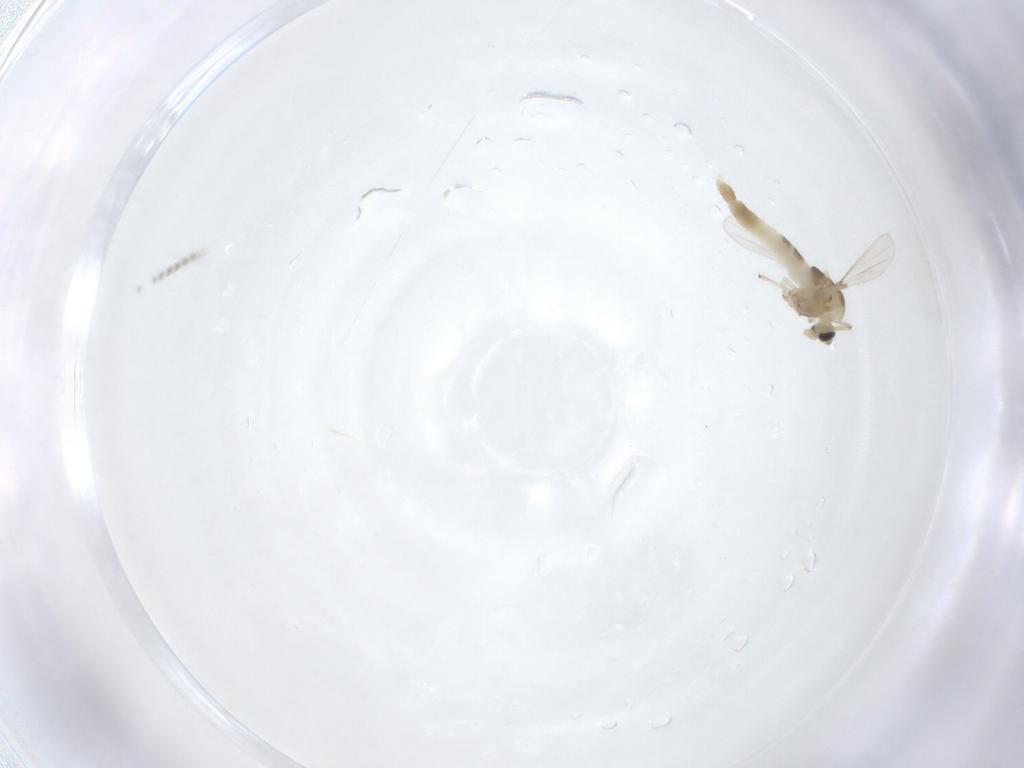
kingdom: Animalia
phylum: Arthropoda
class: Insecta
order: Diptera
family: Chironomidae
